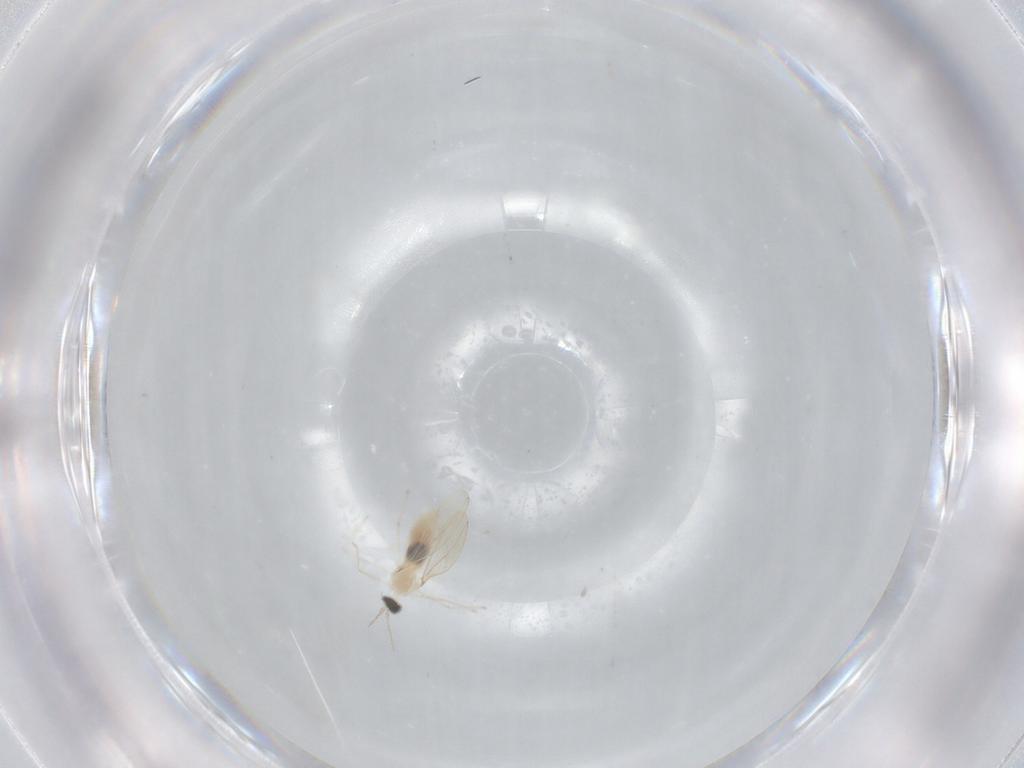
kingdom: Animalia
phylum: Arthropoda
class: Insecta
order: Diptera
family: Cecidomyiidae
